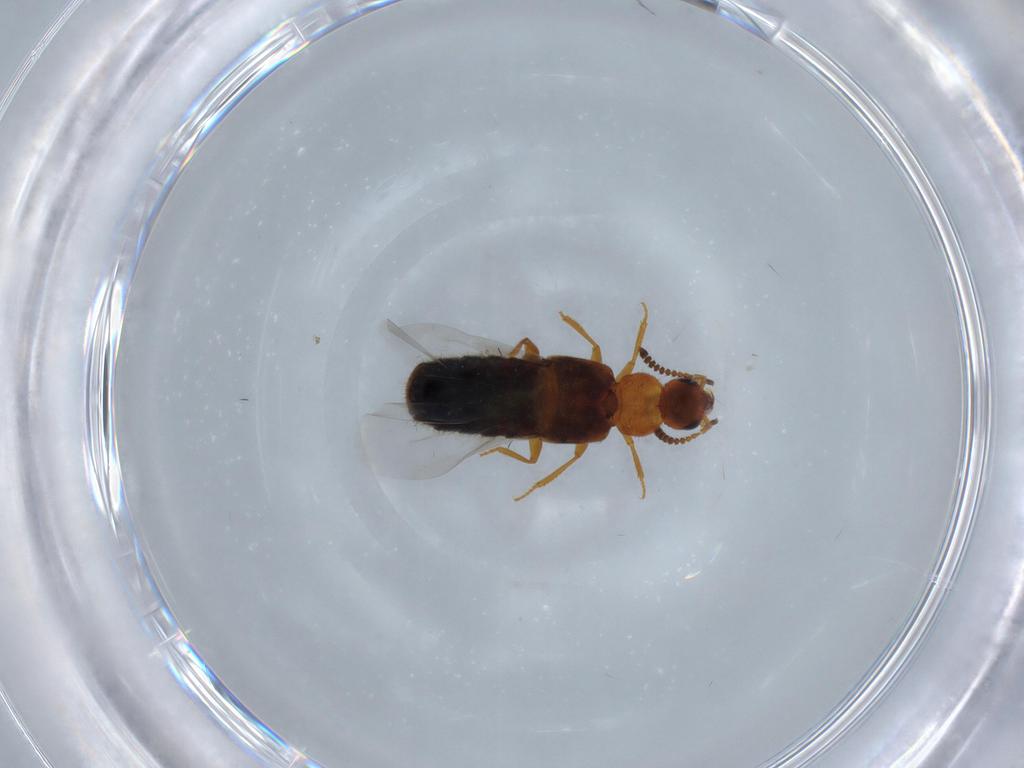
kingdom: Animalia
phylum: Arthropoda
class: Insecta
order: Coleoptera
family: Staphylinidae
